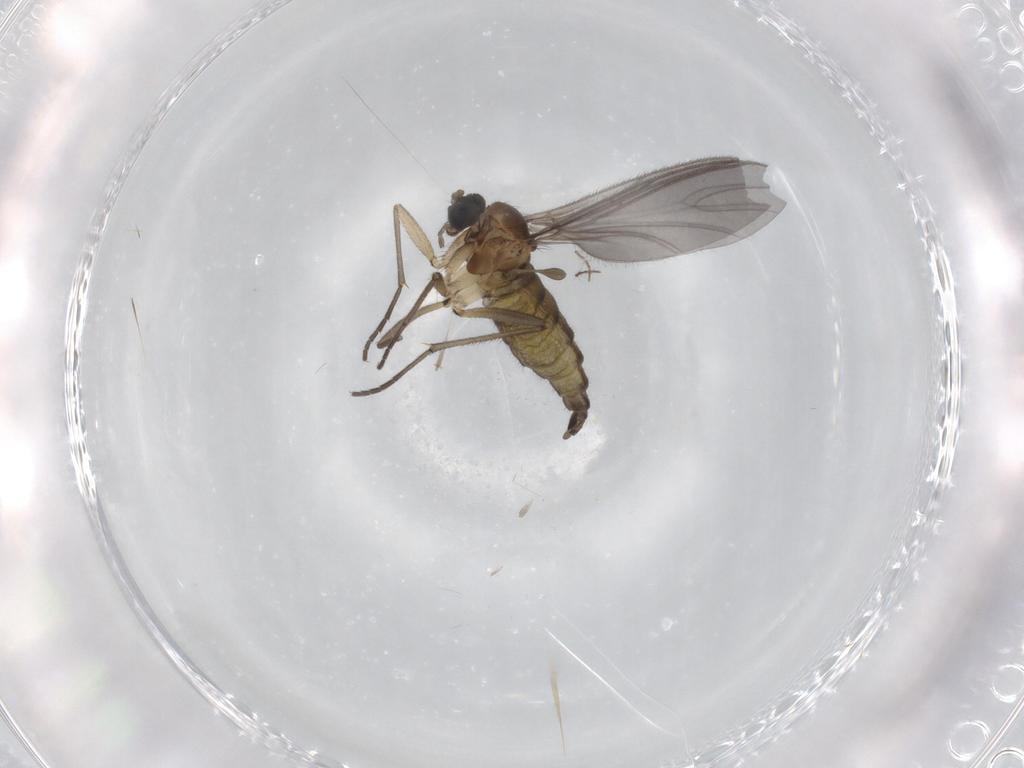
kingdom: Animalia
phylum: Arthropoda
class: Insecta
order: Diptera
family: Sciaridae
